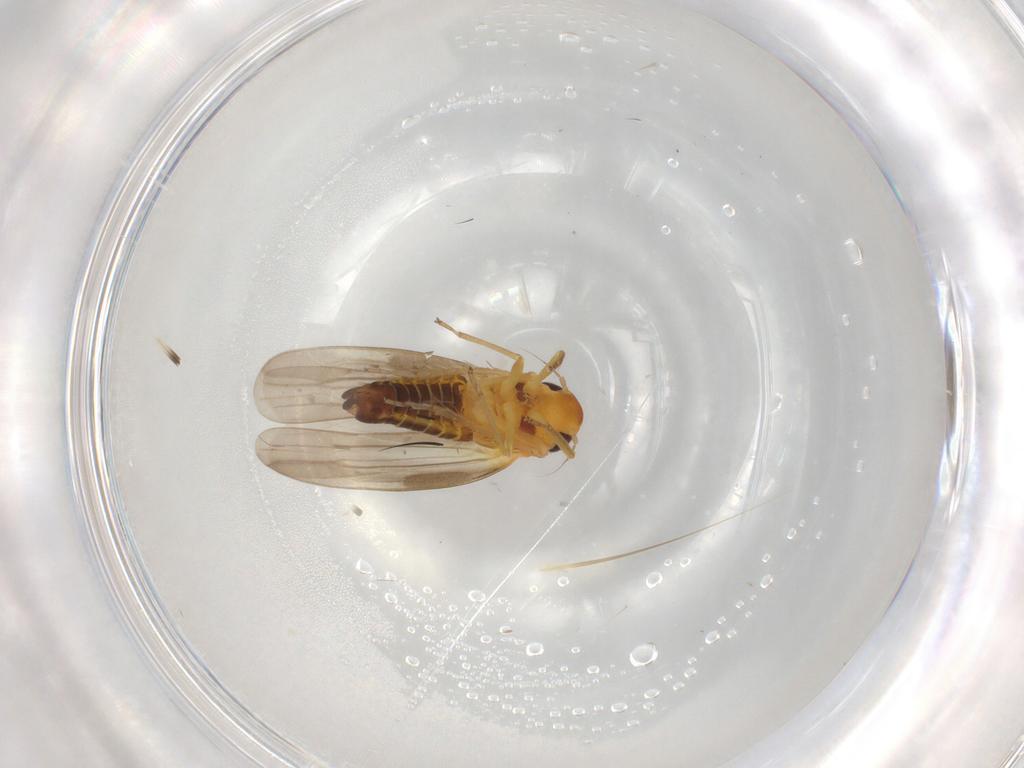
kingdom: Animalia
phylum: Arthropoda
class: Insecta
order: Hemiptera
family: Cicadellidae
